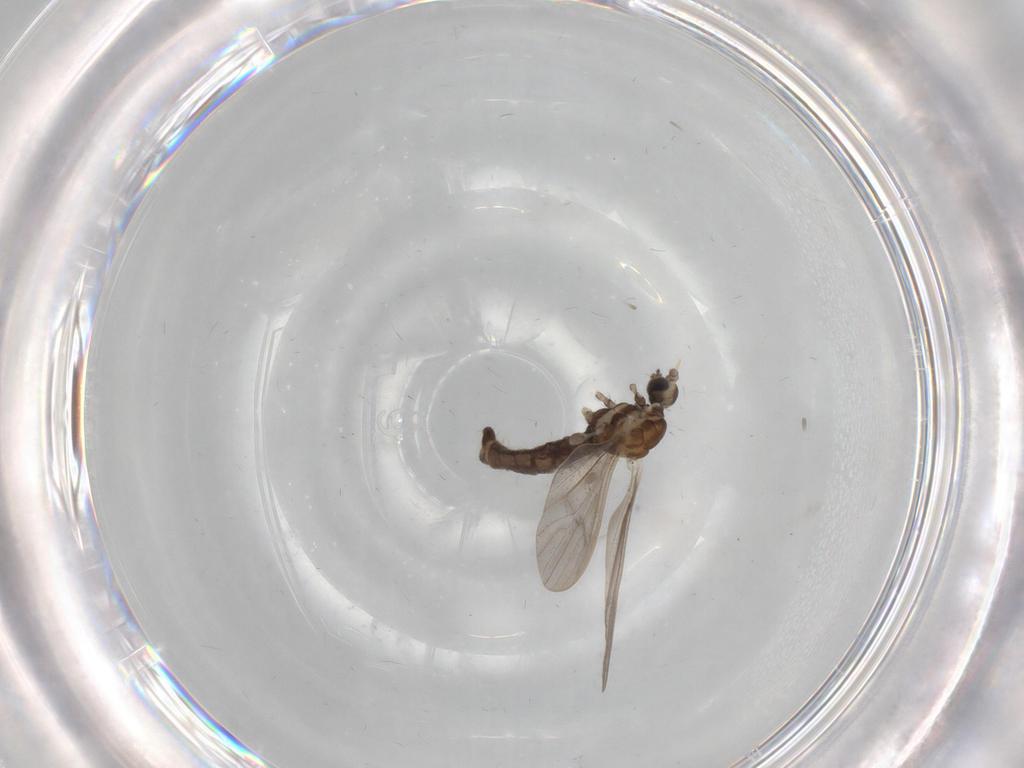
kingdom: Animalia
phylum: Arthropoda
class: Insecta
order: Diptera
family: Limoniidae
